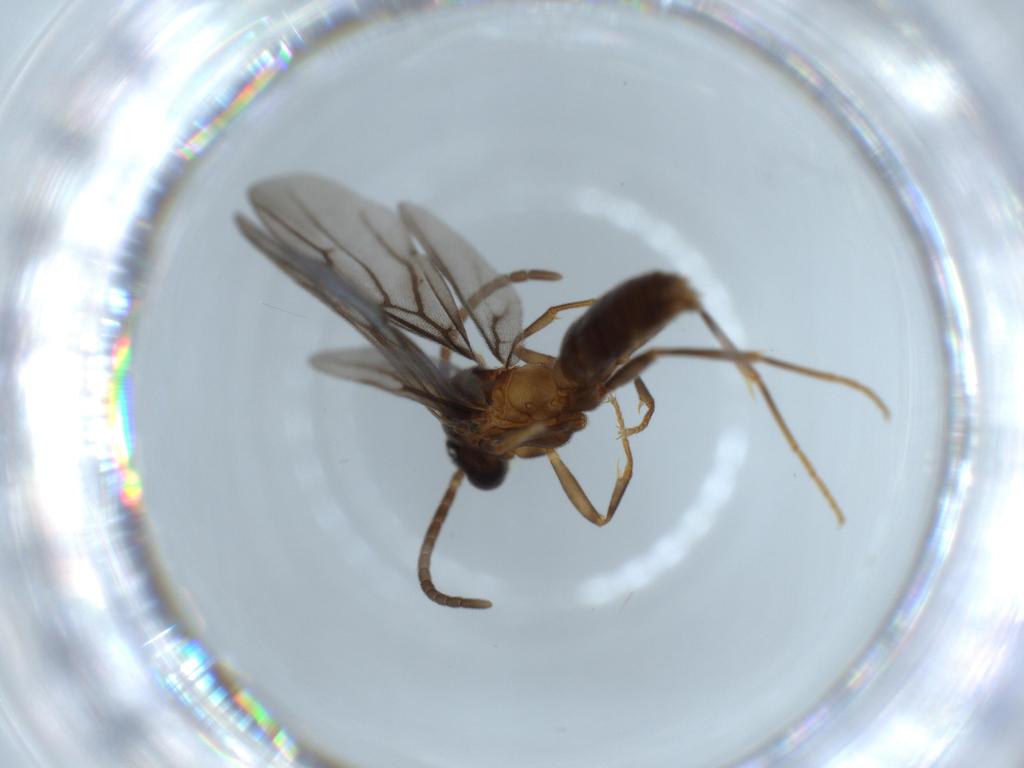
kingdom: Animalia
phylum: Arthropoda
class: Insecta
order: Hymenoptera
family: Formicidae
